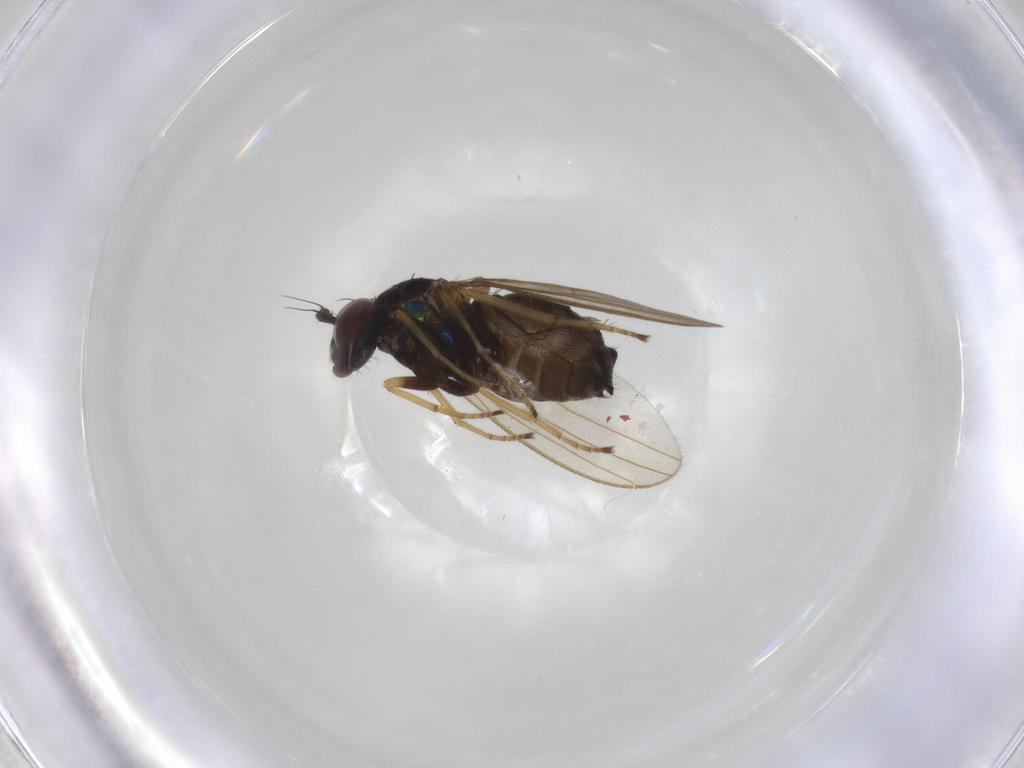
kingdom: Animalia
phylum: Arthropoda
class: Insecta
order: Diptera
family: Dolichopodidae
